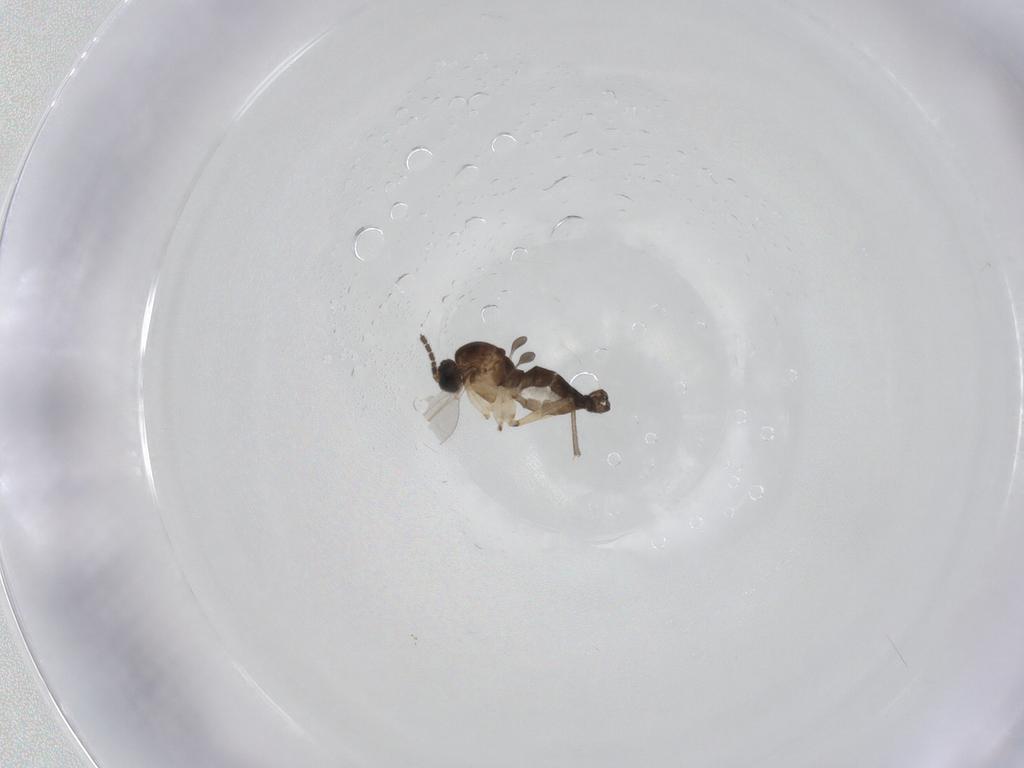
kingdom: Animalia
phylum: Arthropoda
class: Insecta
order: Diptera
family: Sciaridae
